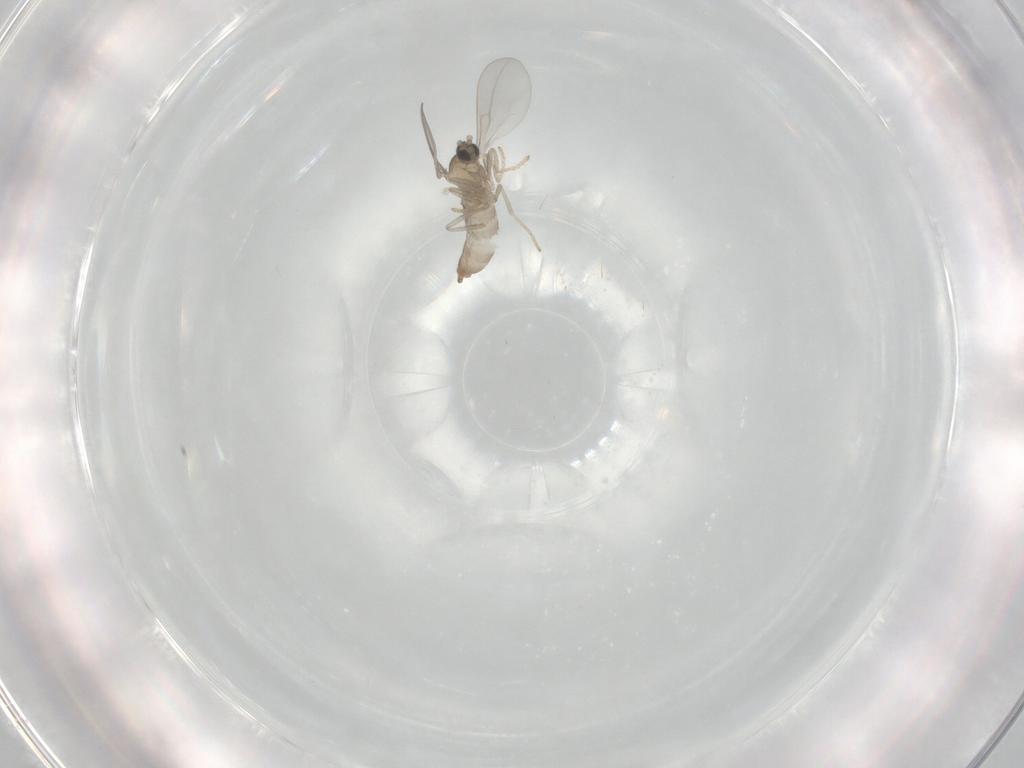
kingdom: Animalia
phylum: Arthropoda
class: Insecta
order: Diptera
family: Cecidomyiidae
